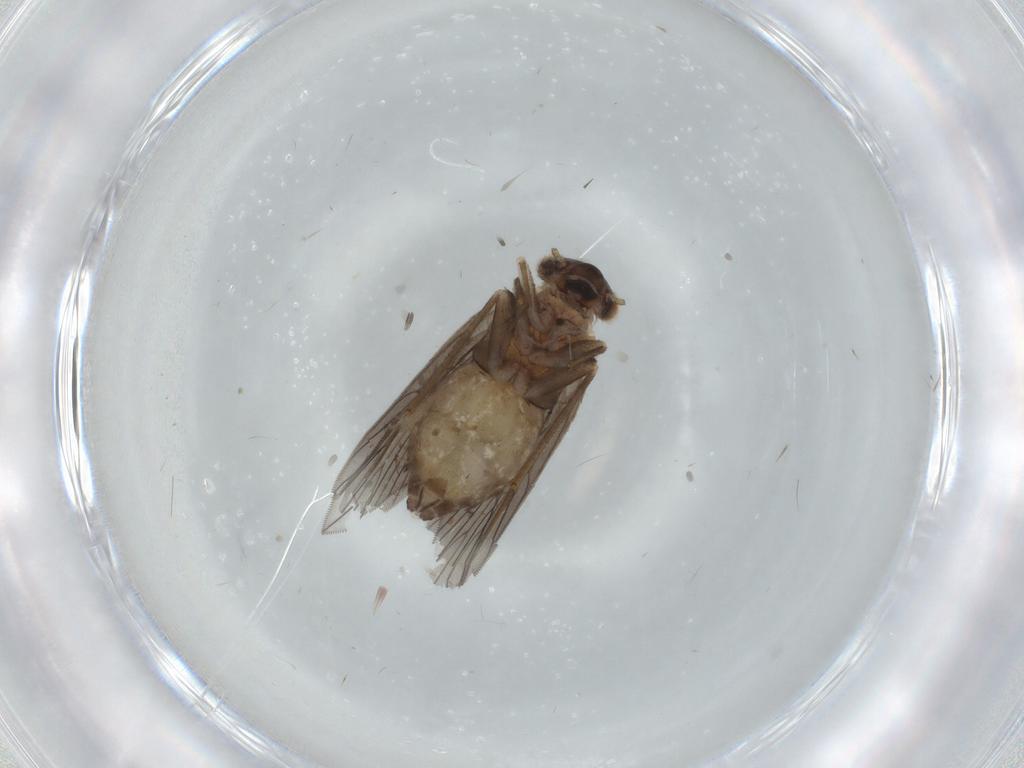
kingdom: Animalia
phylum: Arthropoda
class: Insecta
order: Psocodea
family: Lepidopsocidae
